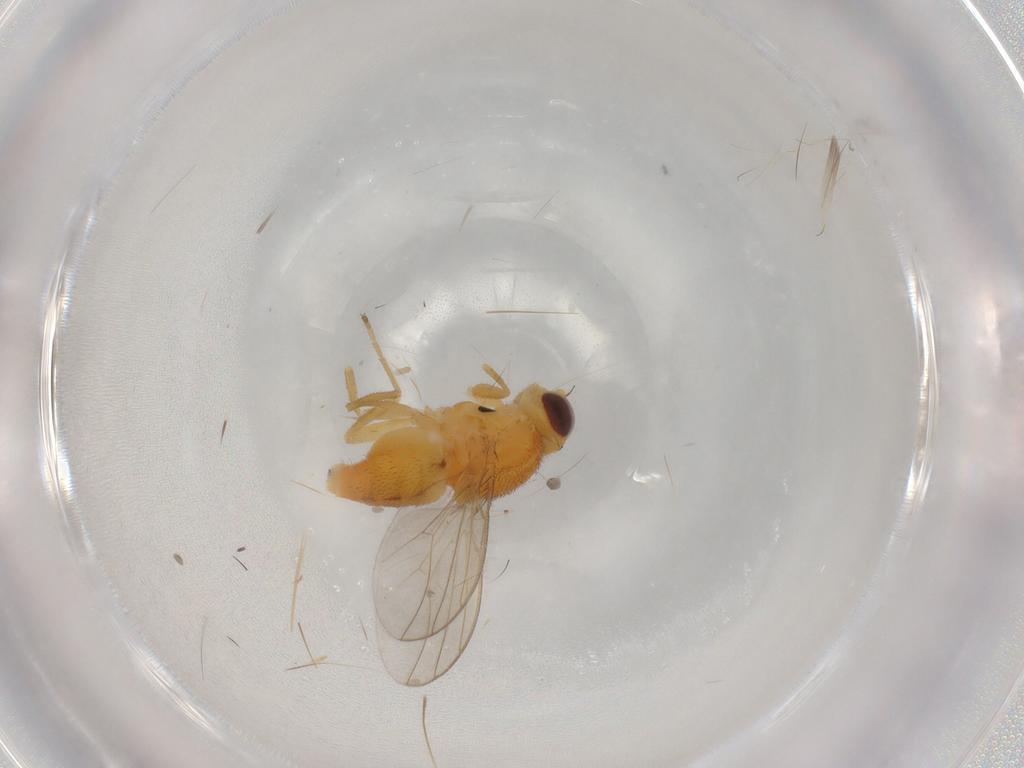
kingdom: Animalia
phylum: Arthropoda
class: Insecta
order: Diptera
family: Chloropidae
